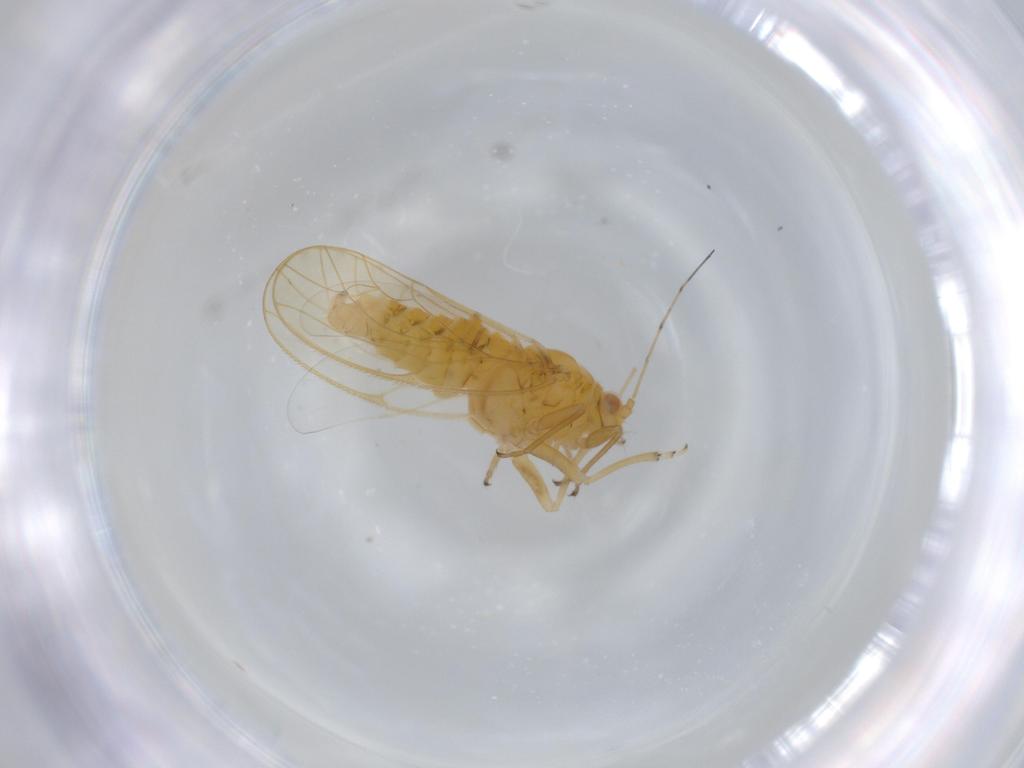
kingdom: Animalia
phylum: Arthropoda
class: Insecta
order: Hemiptera
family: Psyllidae
